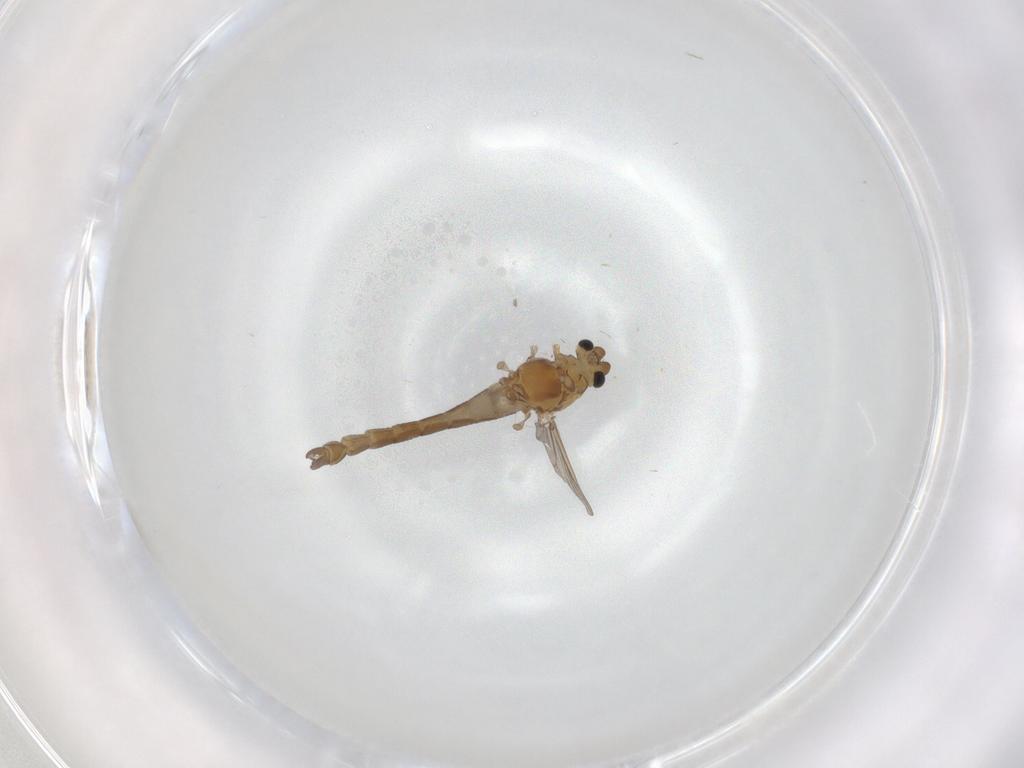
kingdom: Animalia
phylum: Arthropoda
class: Insecta
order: Diptera
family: Chironomidae
